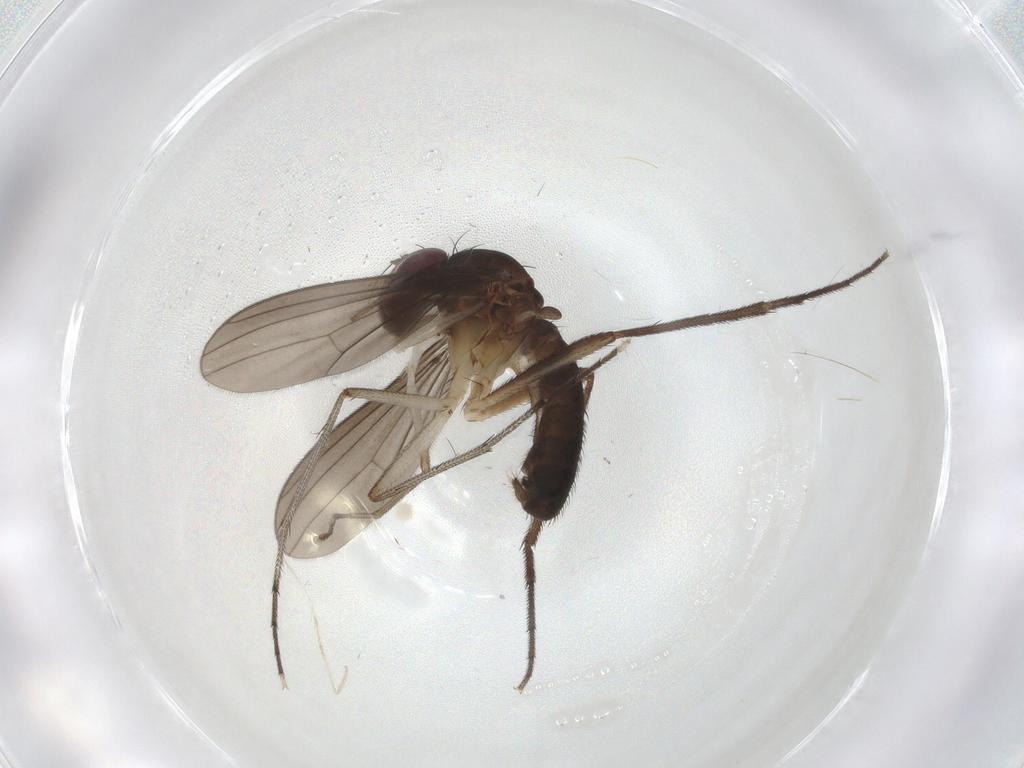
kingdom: Animalia
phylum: Arthropoda
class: Insecta
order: Diptera
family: Dolichopodidae
